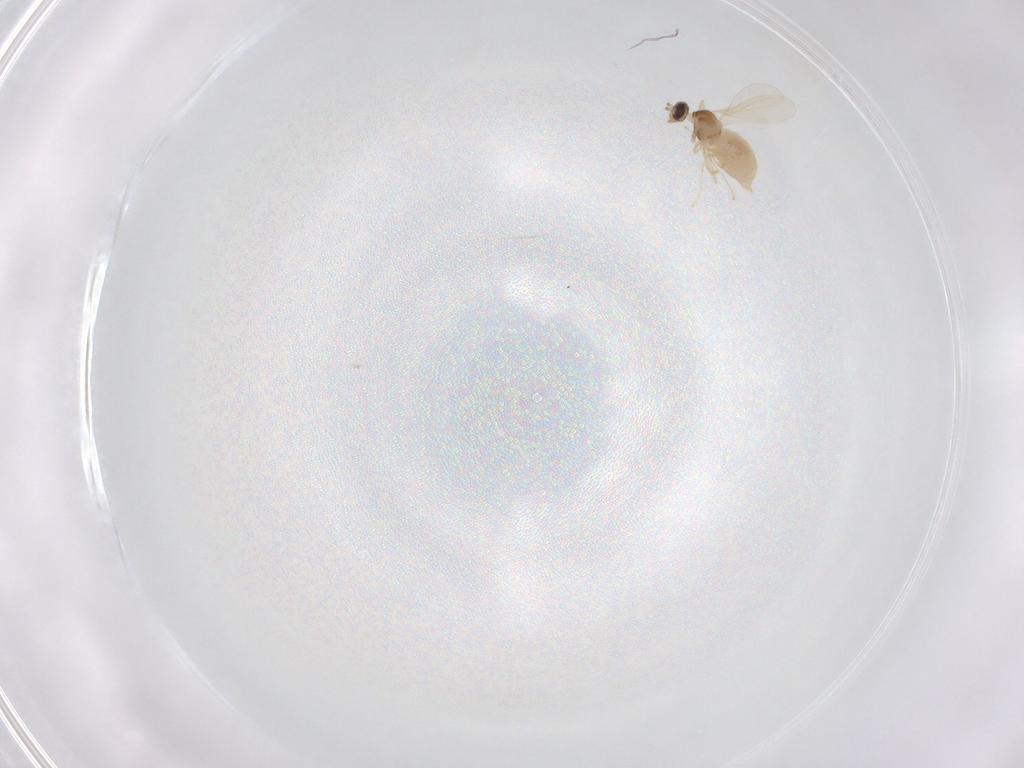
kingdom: Animalia
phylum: Arthropoda
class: Insecta
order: Diptera
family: Cecidomyiidae
